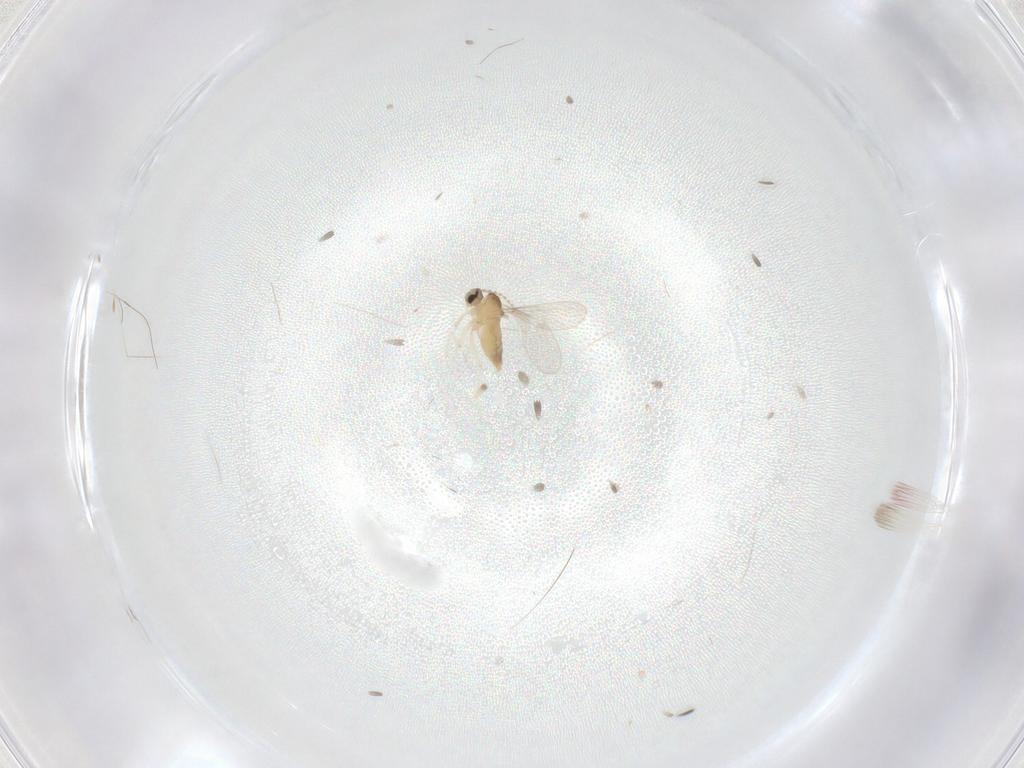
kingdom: Animalia
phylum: Arthropoda
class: Insecta
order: Diptera
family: Cecidomyiidae
